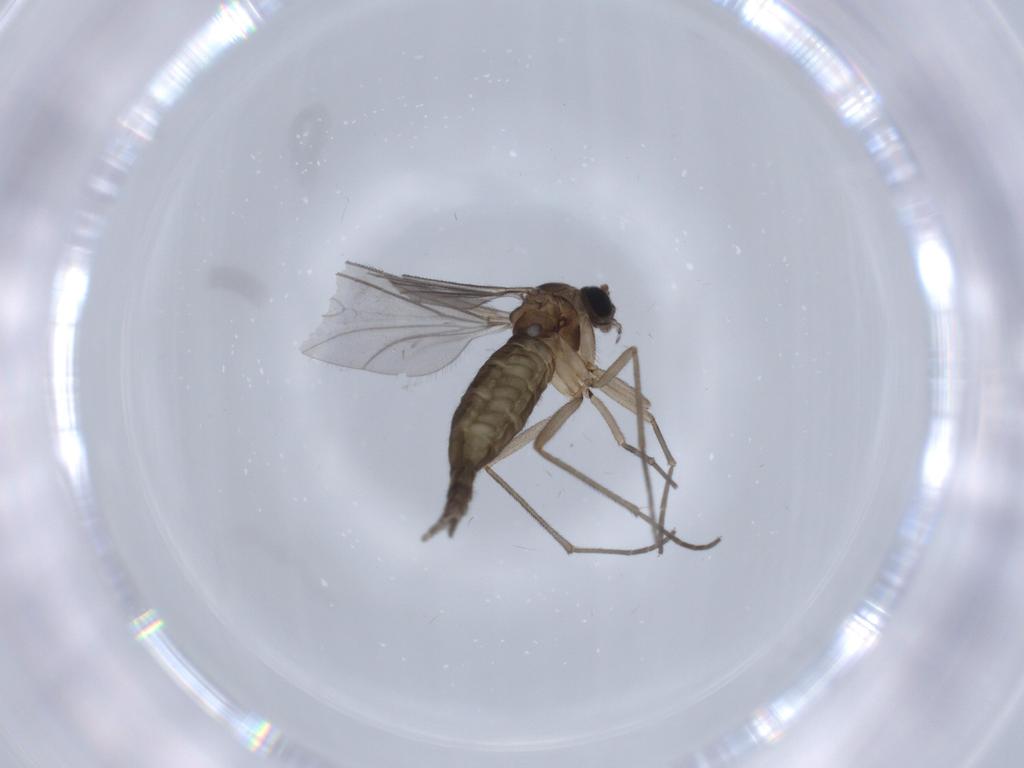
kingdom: Animalia
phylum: Arthropoda
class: Insecta
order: Diptera
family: Sciaridae
